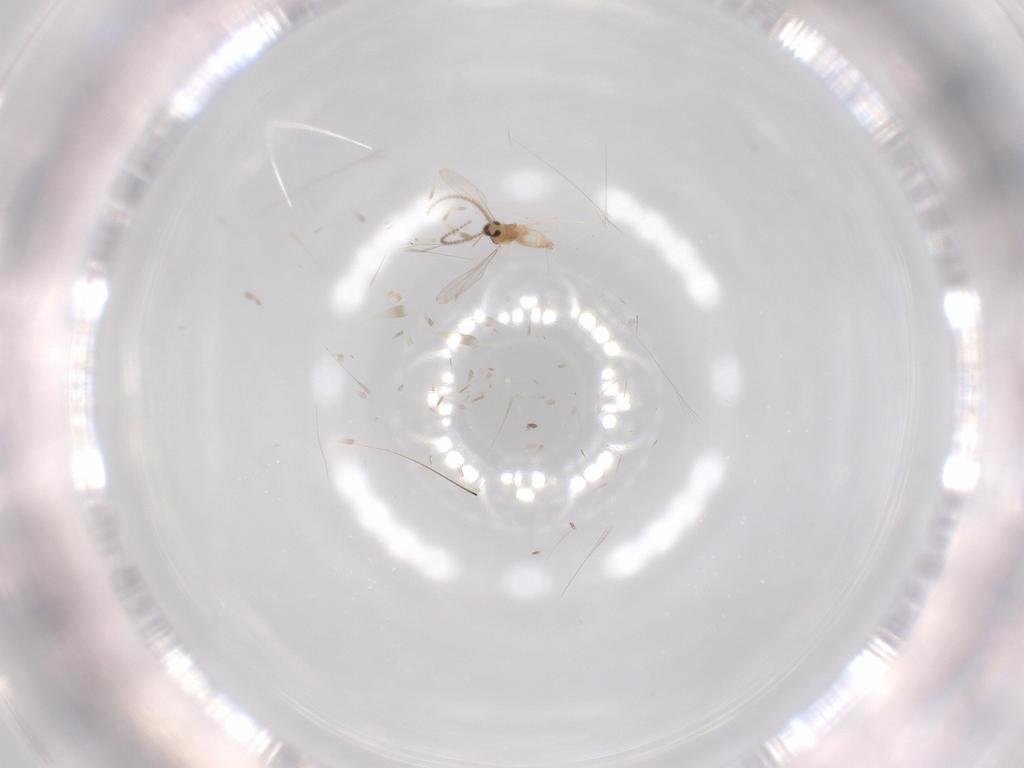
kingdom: Animalia
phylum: Arthropoda
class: Insecta
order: Diptera
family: Cecidomyiidae
